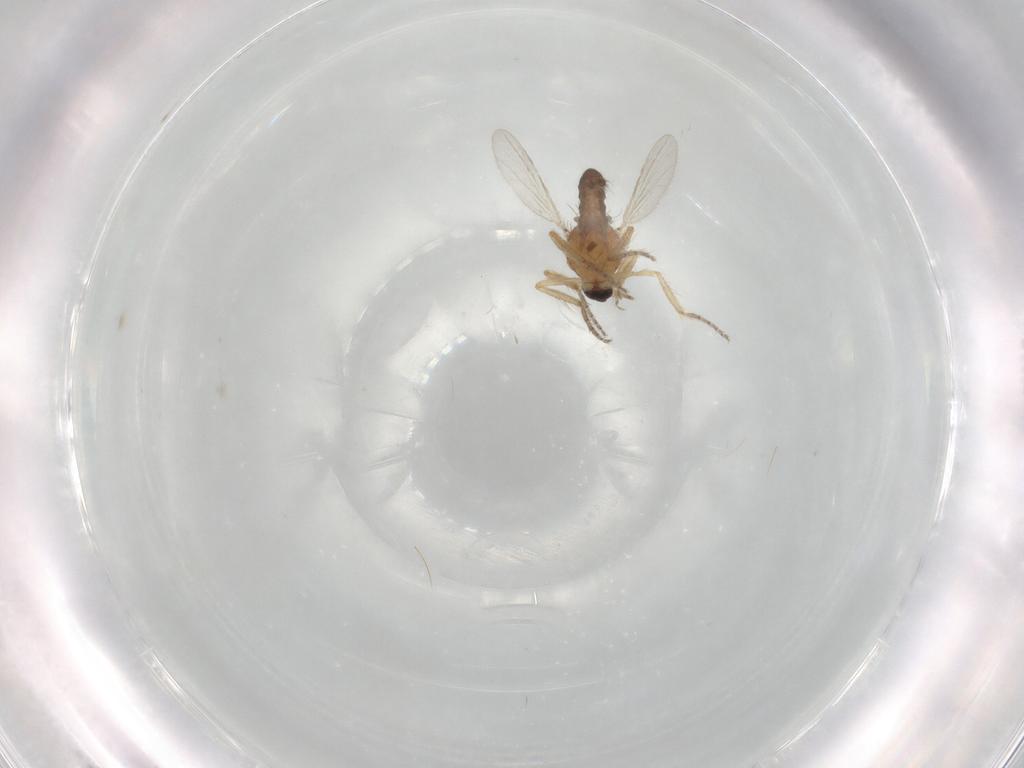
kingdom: Animalia
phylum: Arthropoda
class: Insecta
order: Diptera
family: Ceratopogonidae
